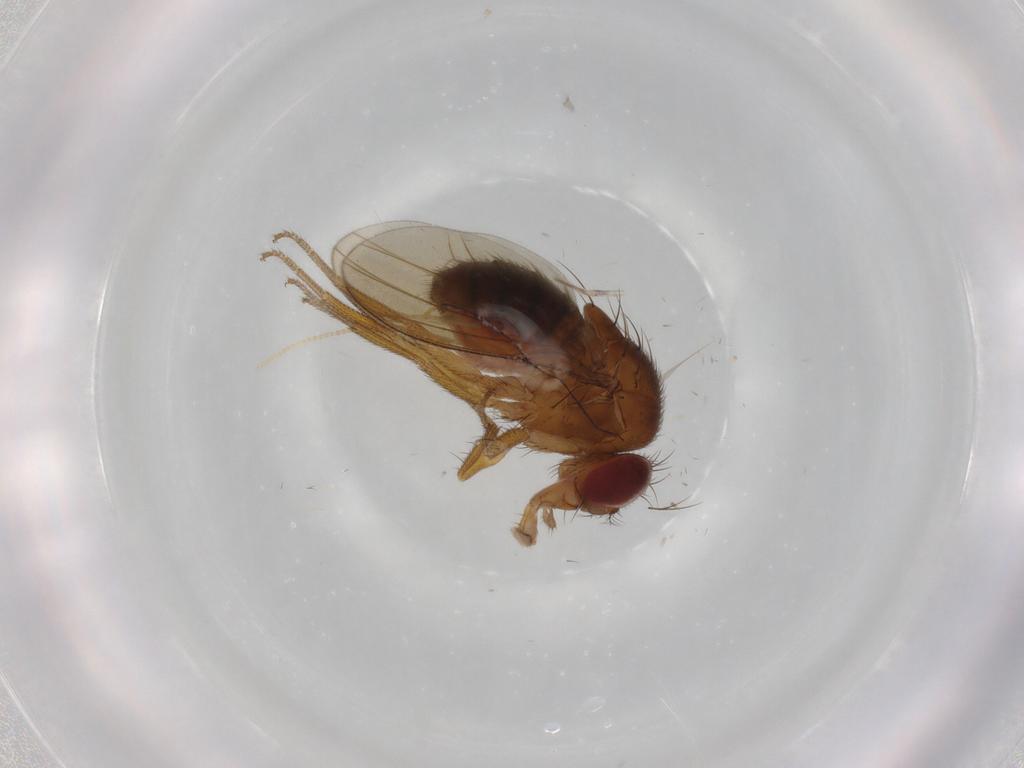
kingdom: Animalia
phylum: Arthropoda
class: Insecta
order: Diptera
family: Drosophilidae
